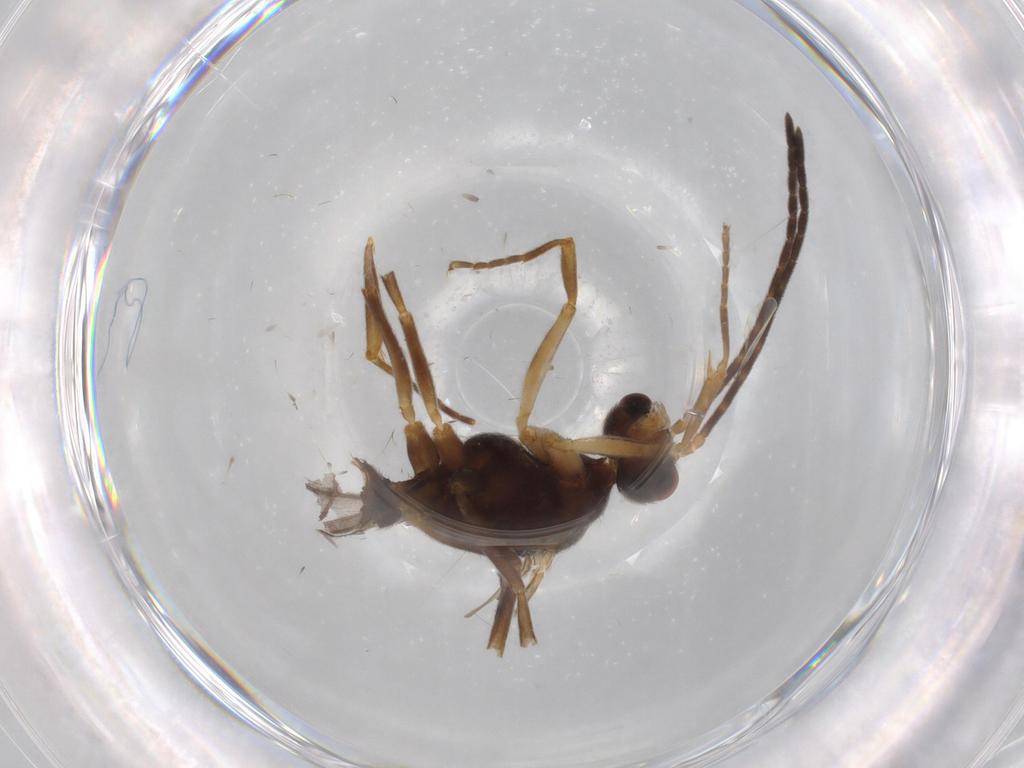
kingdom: Animalia
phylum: Arthropoda
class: Insecta
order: Hymenoptera
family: Formicidae
